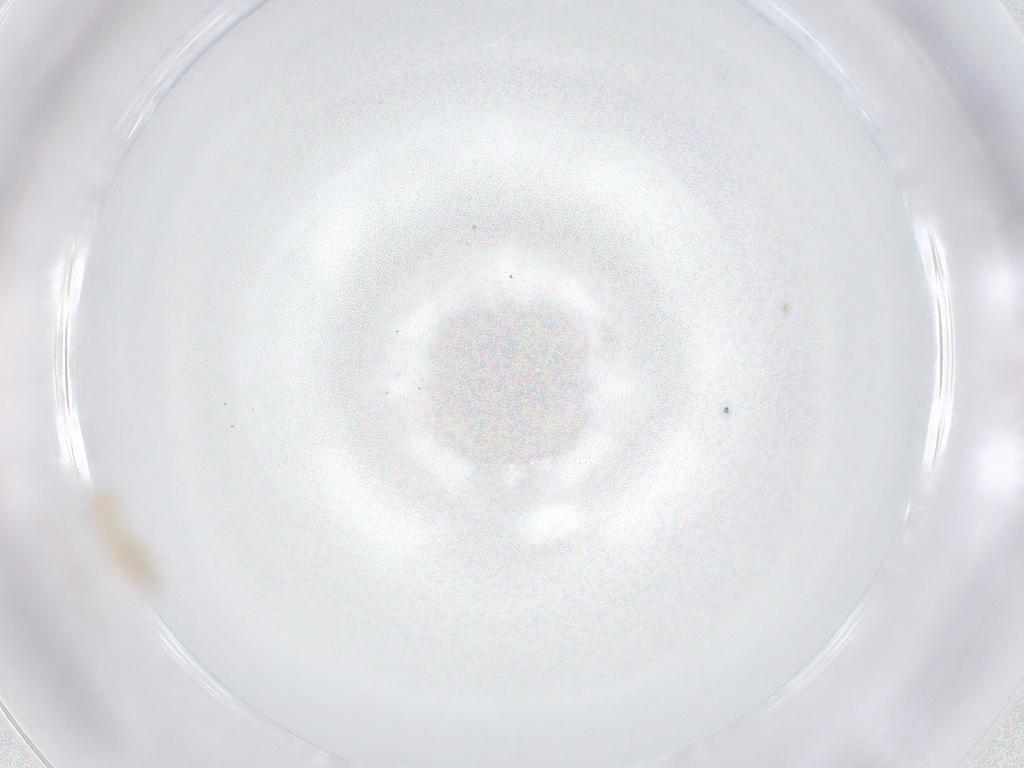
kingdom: Animalia
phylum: Arthropoda
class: Insecta
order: Thysanoptera
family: Thripidae
